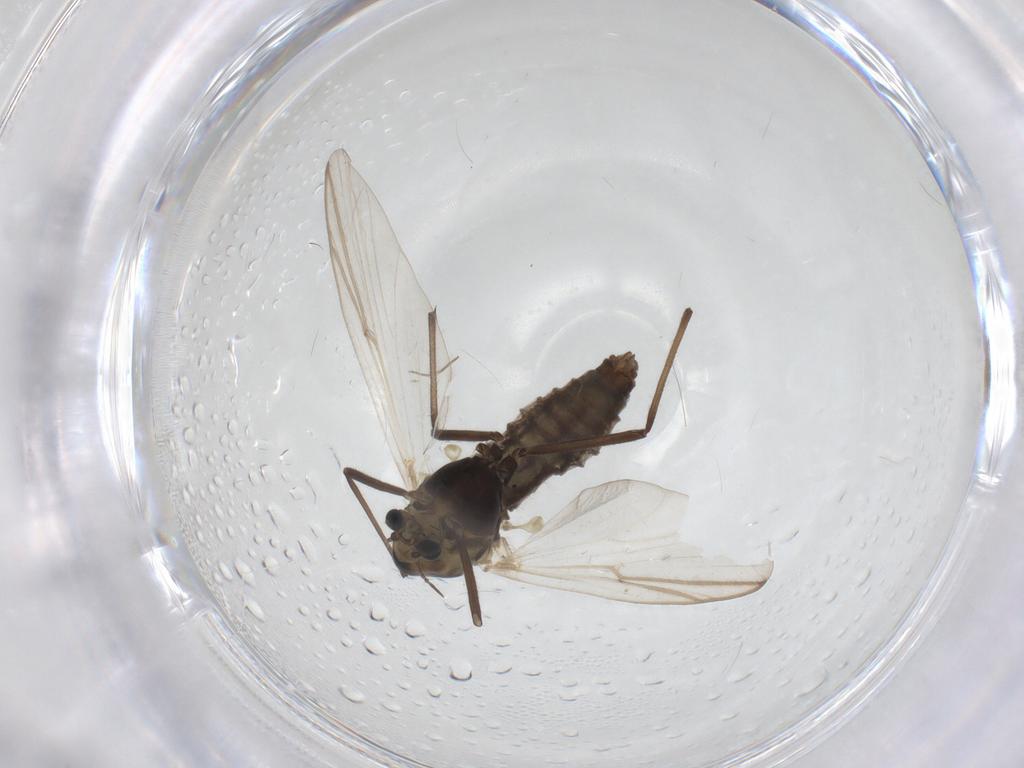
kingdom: Animalia
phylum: Arthropoda
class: Insecta
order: Diptera
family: Chironomidae
